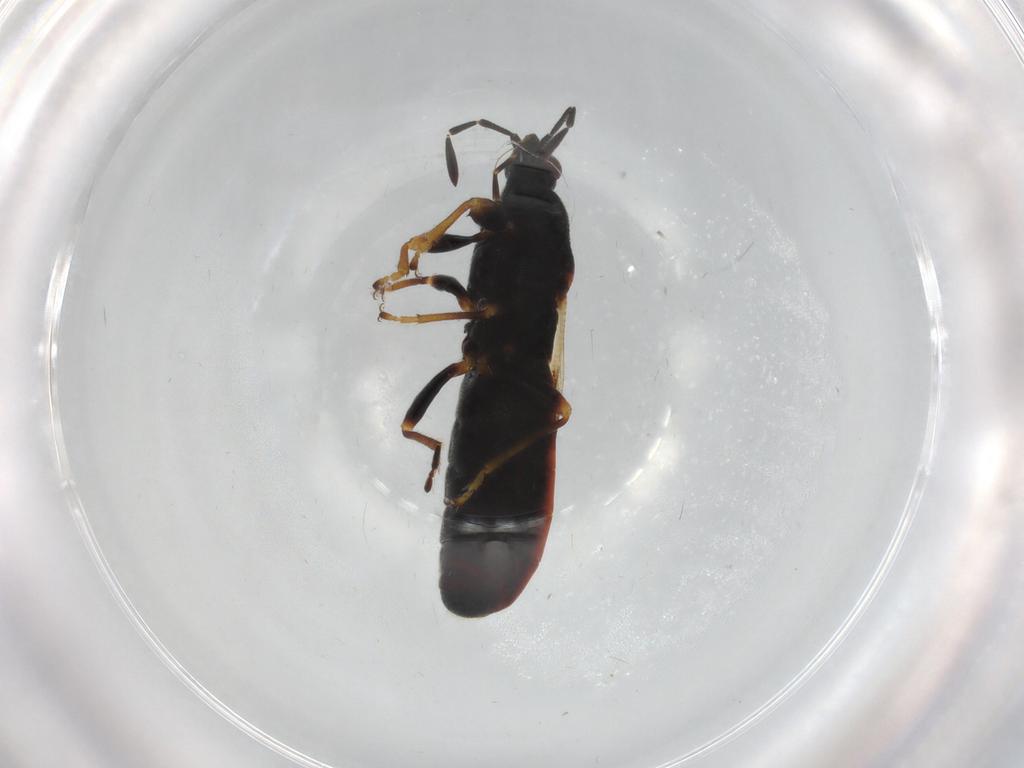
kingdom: Animalia
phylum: Arthropoda
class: Insecta
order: Hemiptera
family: Blissidae
